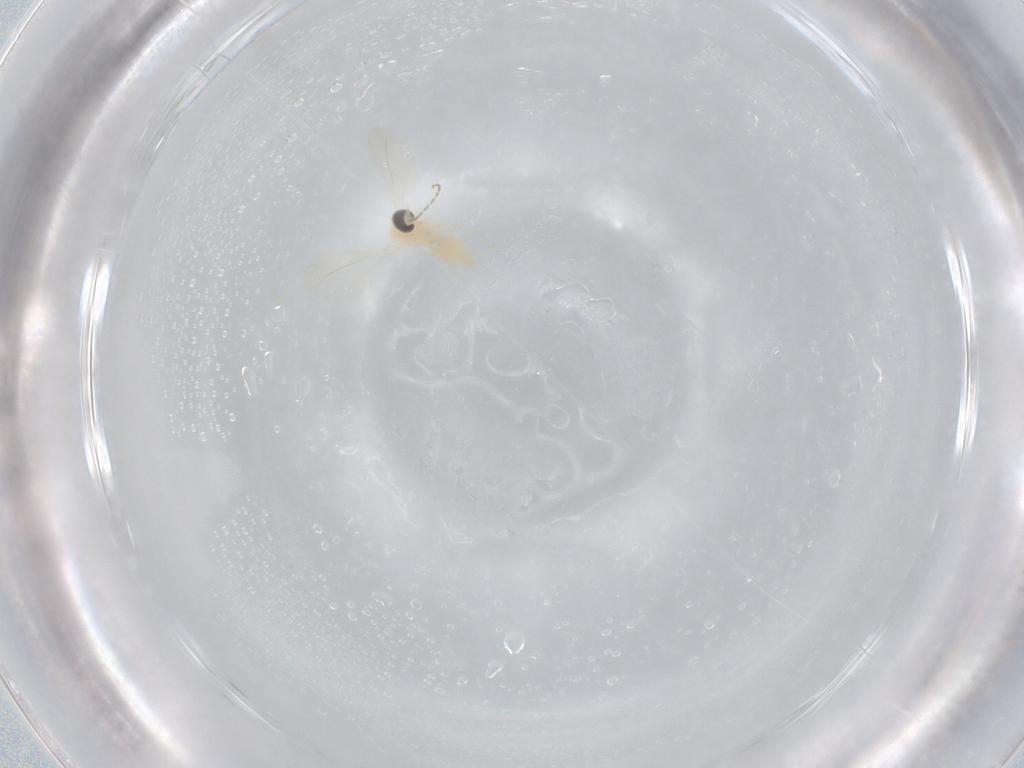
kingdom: Animalia
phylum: Arthropoda
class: Insecta
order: Diptera
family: Cecidomyiidae
